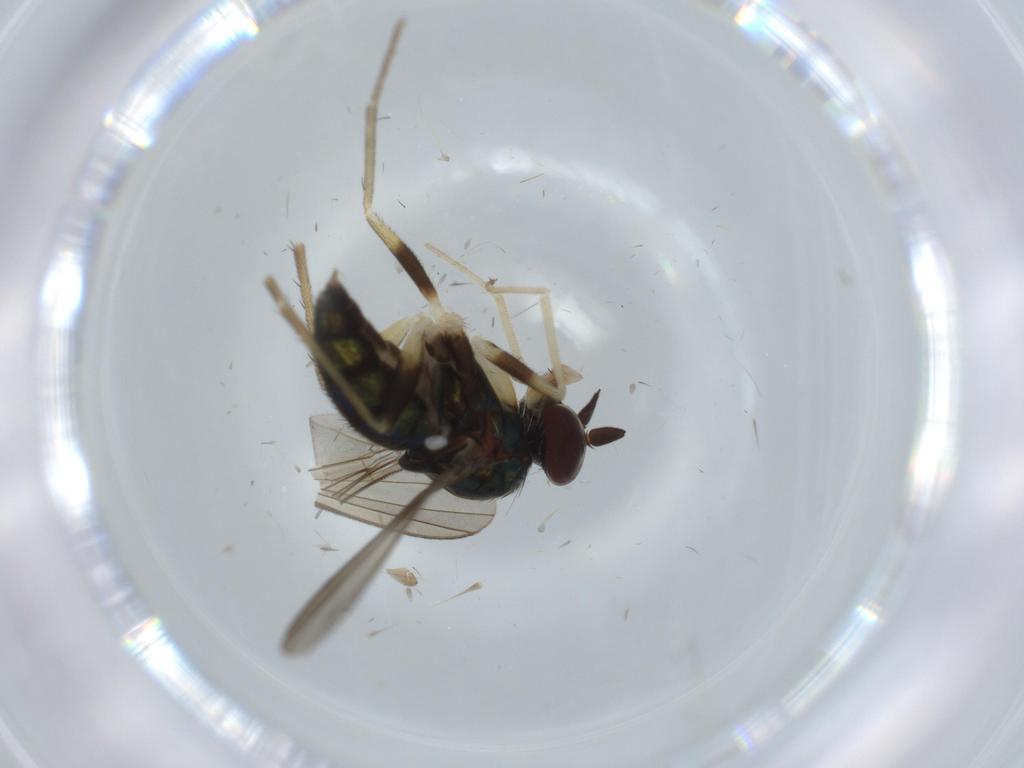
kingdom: Animalia
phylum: Arthropoda
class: Insecta
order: Diptera
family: Dolichopodidae
